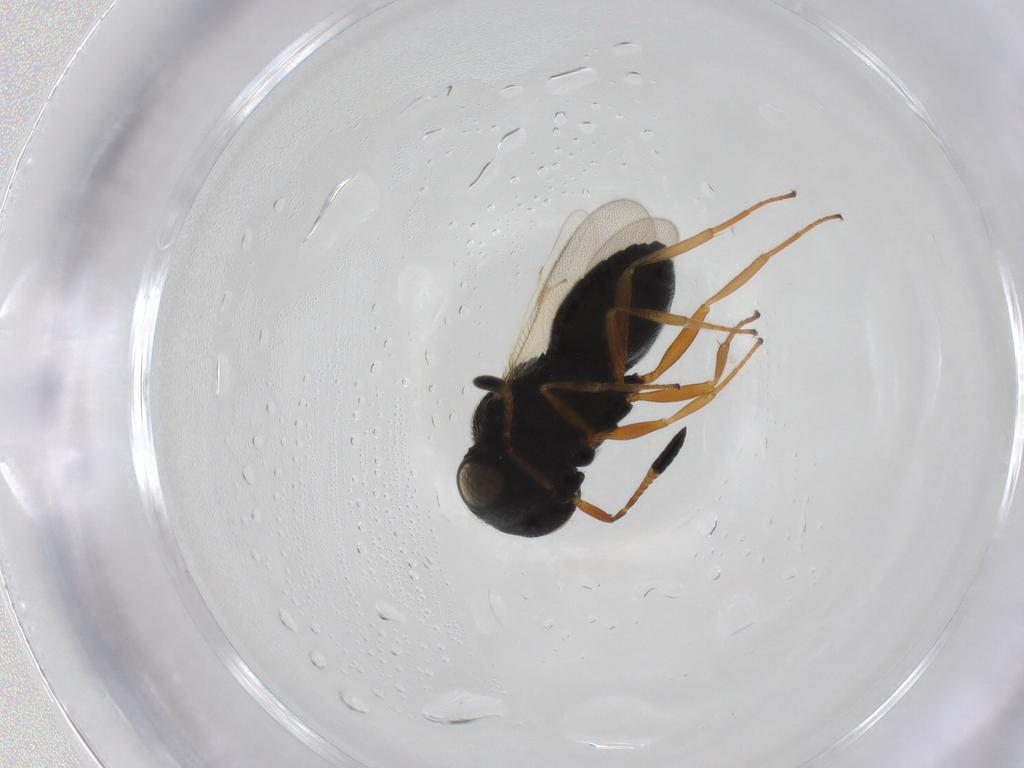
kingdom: Animalia
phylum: Arthropoda
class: Insecta
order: Hymenoptera
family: Scelionidae
